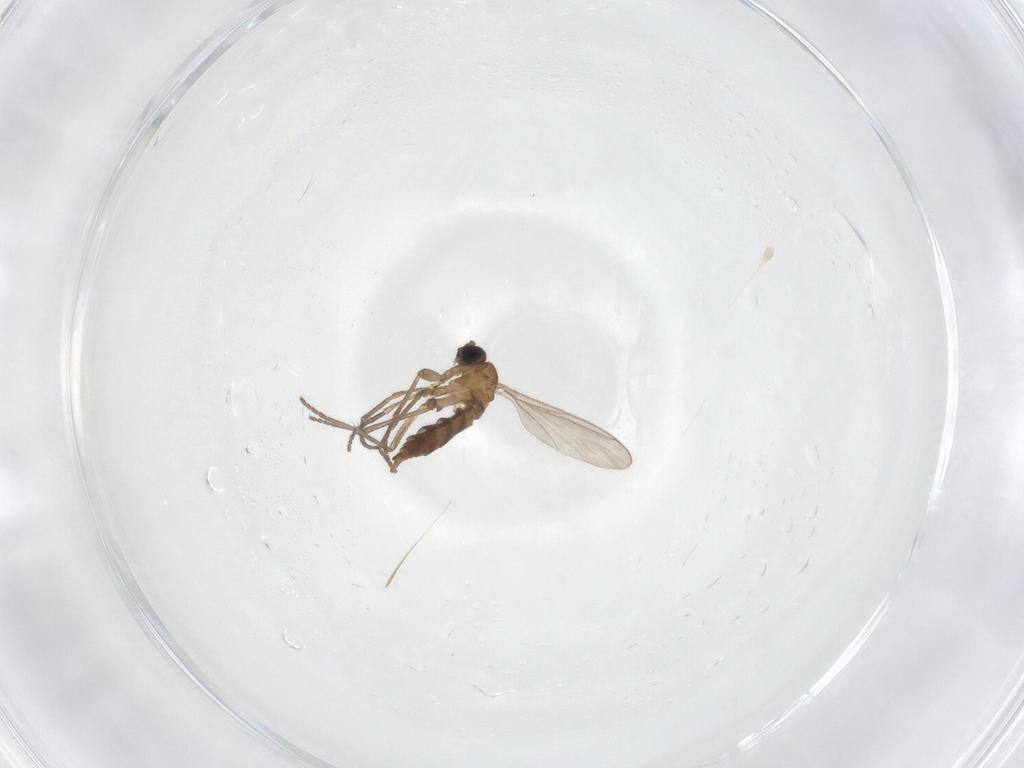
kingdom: Animalia
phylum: Arthropoda
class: Insecta
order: Diptera
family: Sciaridae
